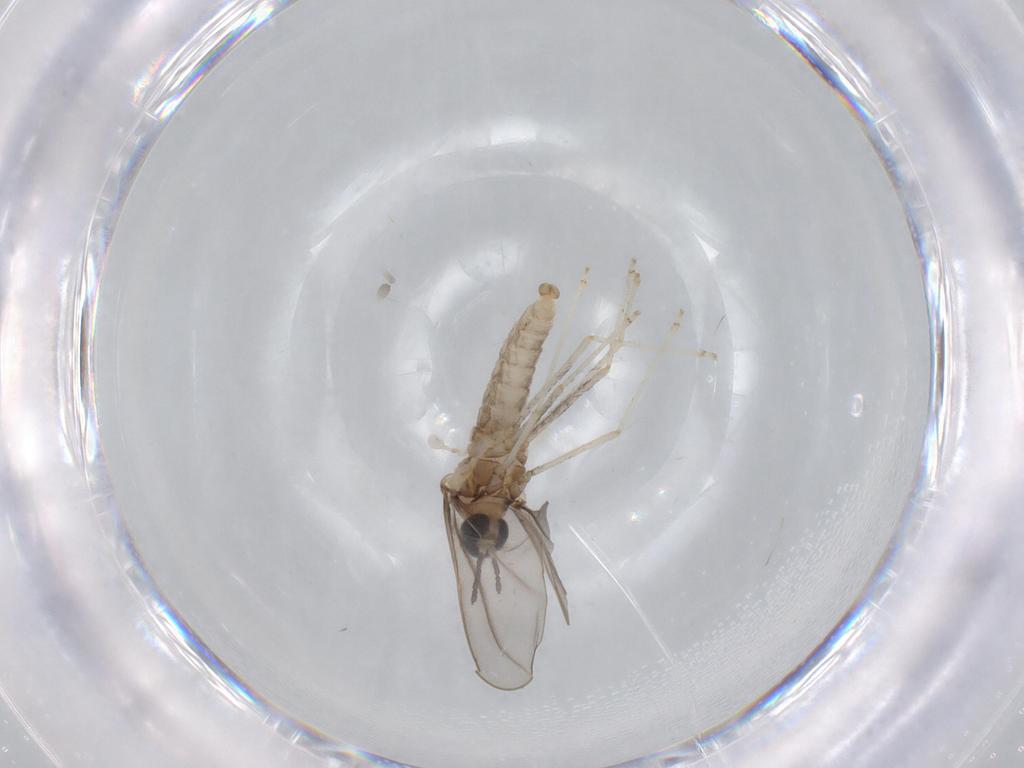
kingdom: Animalia
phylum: Arthropoda
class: Insecta
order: Diptera
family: Cecidomyiidae
